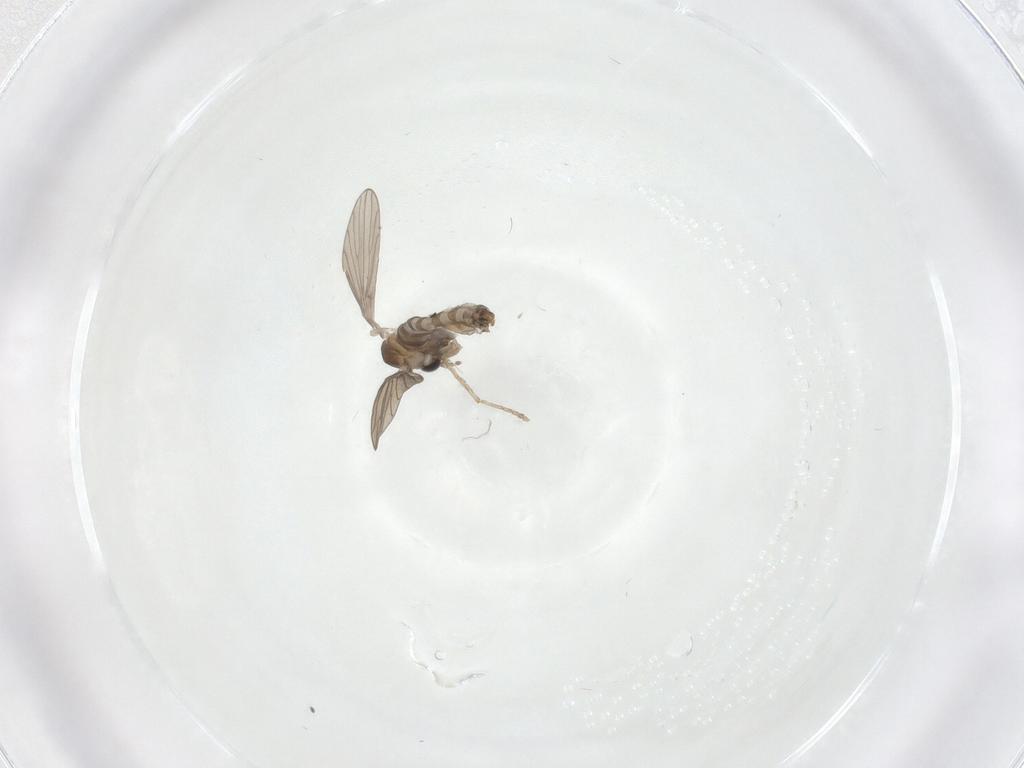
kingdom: Animalia
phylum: Arthropoda
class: Insecta
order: Diptera
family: Psychodidae
